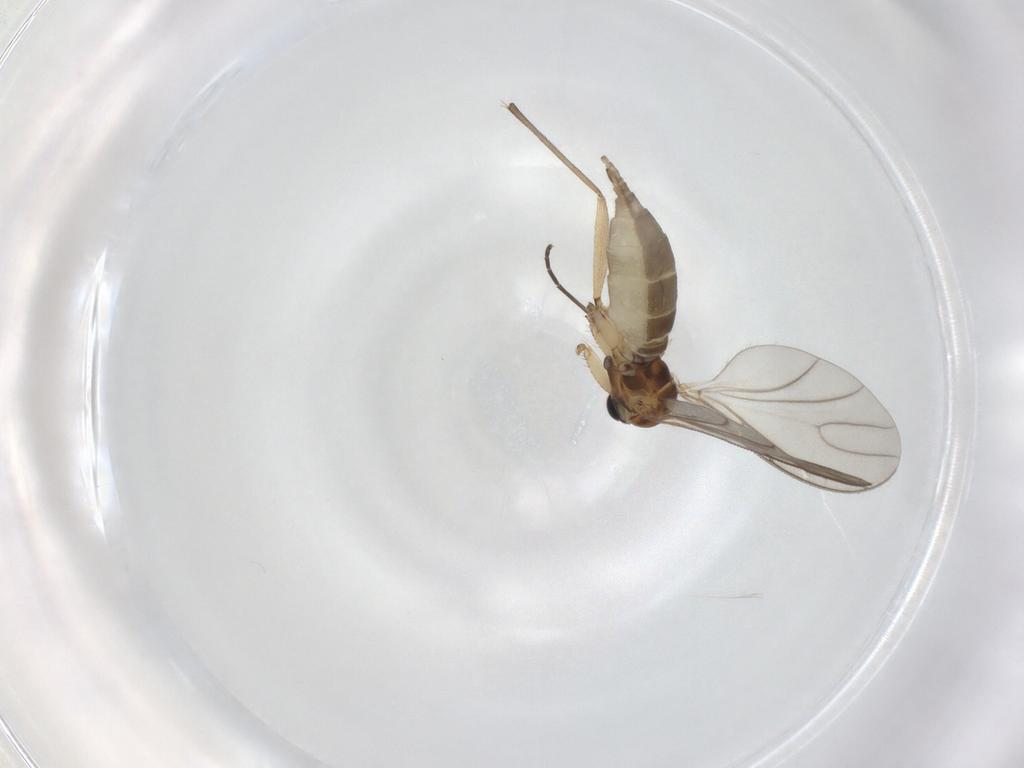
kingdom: Animalia
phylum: Arthropoda
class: Insecta
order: Diptera
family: Sciaridae
